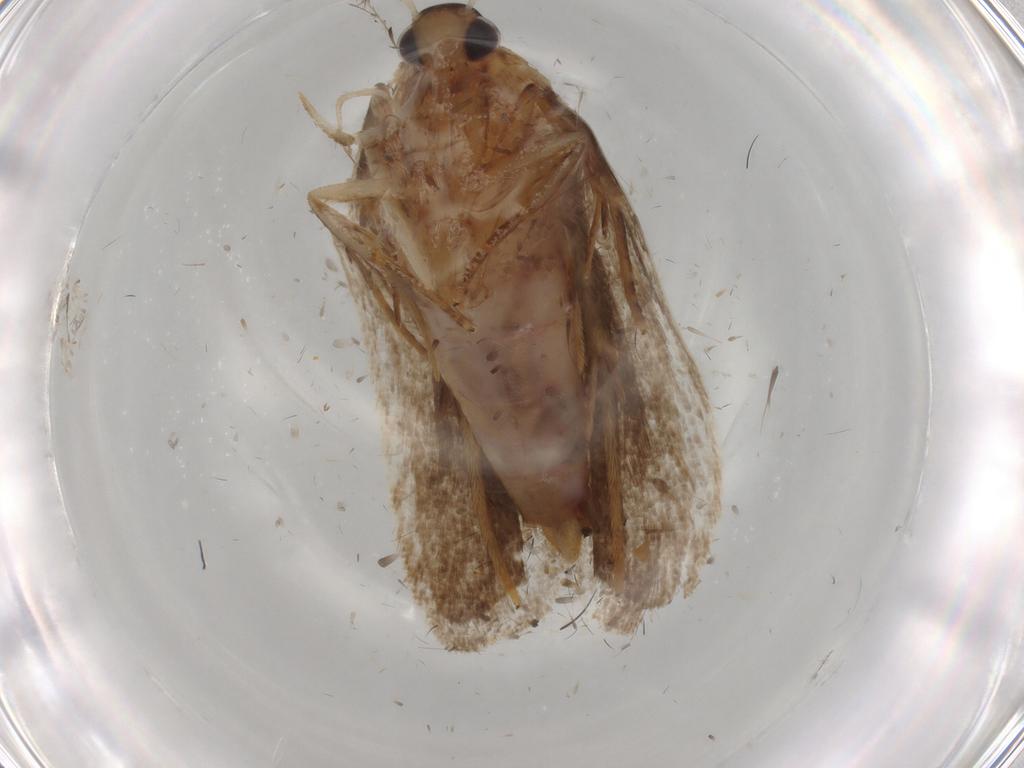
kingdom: Animalia
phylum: Arthropoda
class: Insecta
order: Lepidoptera
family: Autostichidae
